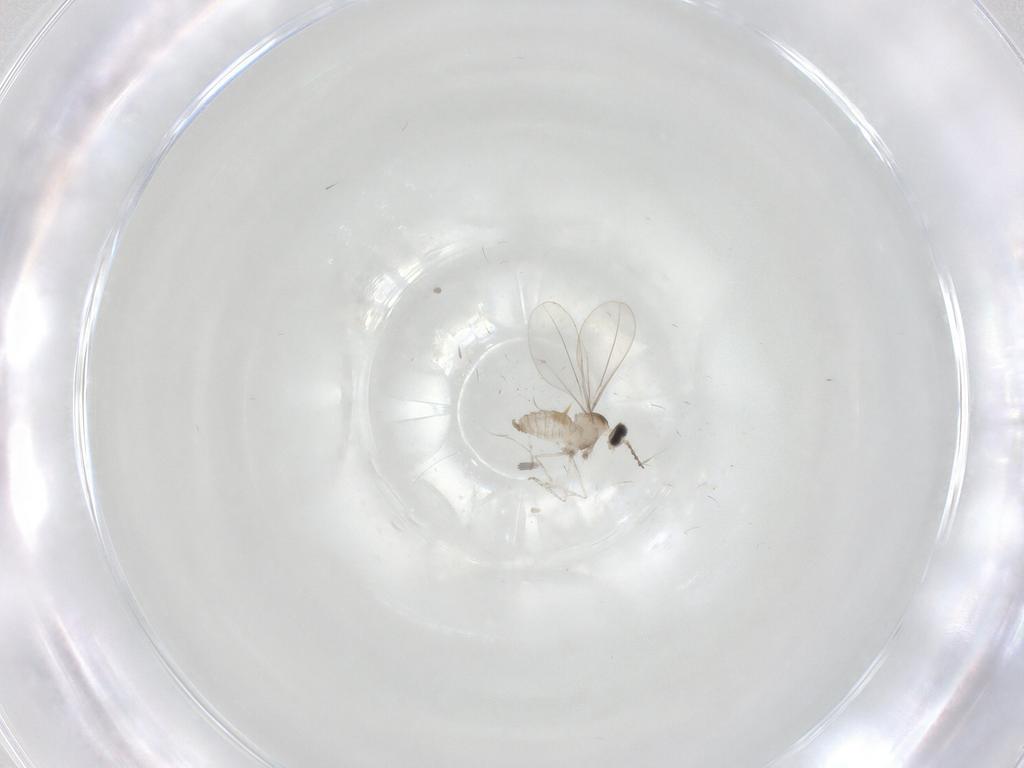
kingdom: Animalia
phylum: Arthropoda
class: Insecta
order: Diptera
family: Cecidomyiidae
